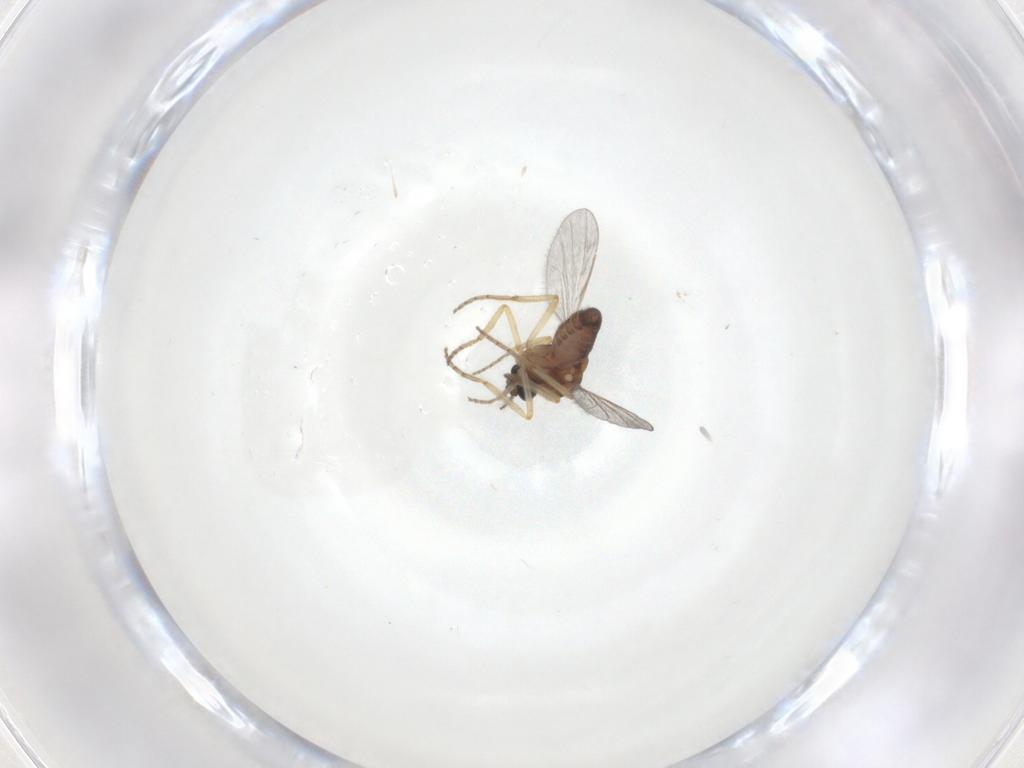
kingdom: Animalia
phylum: Arthropoda
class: Insecta
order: Diptera
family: Ceratopogonidae
